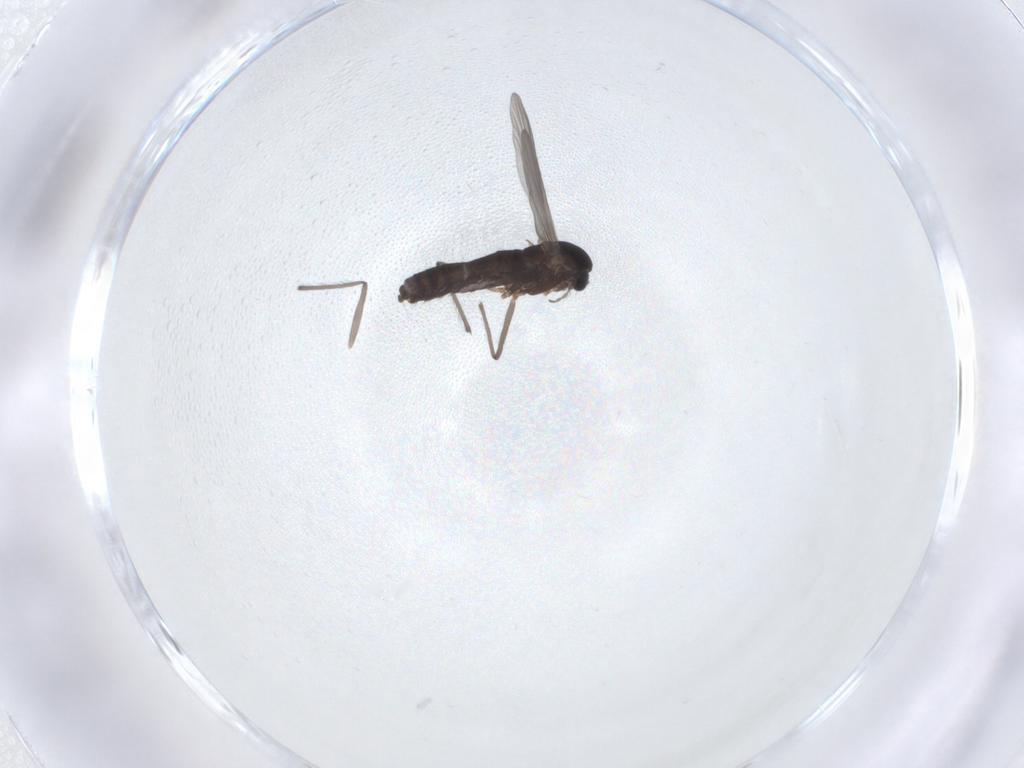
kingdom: Animalia
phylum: Arthropoda
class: Insecta
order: Diptera
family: Chironomidae
